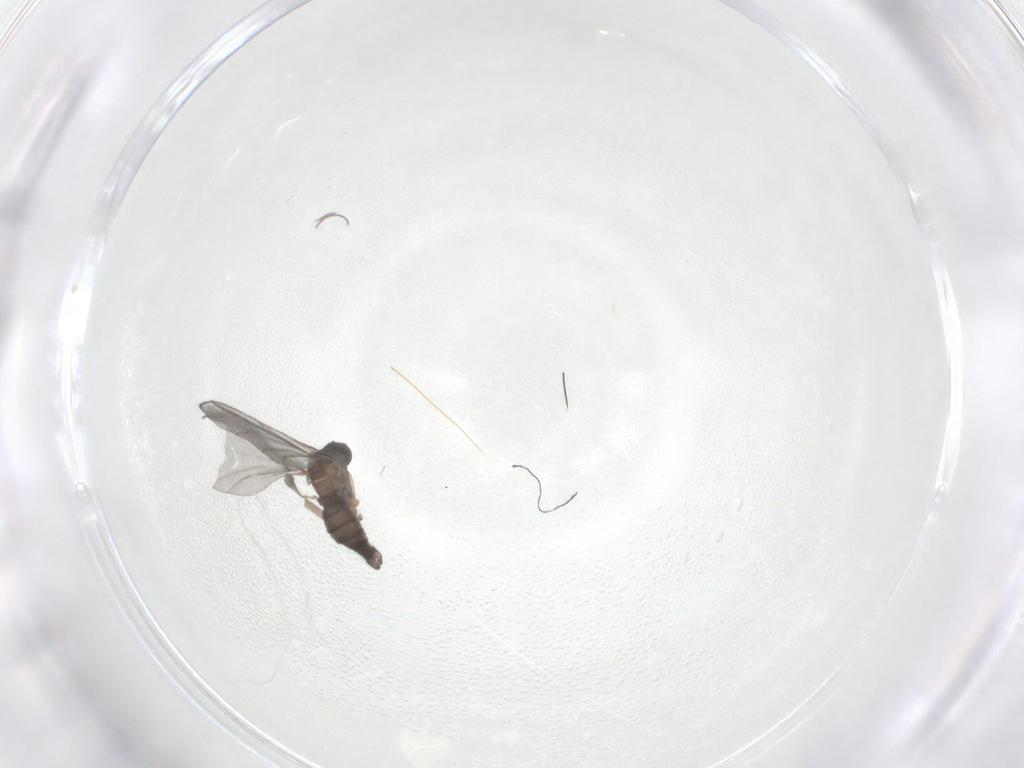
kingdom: Animalia
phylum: Arthropoda
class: Insecta
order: Diptera
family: Sciaridae
